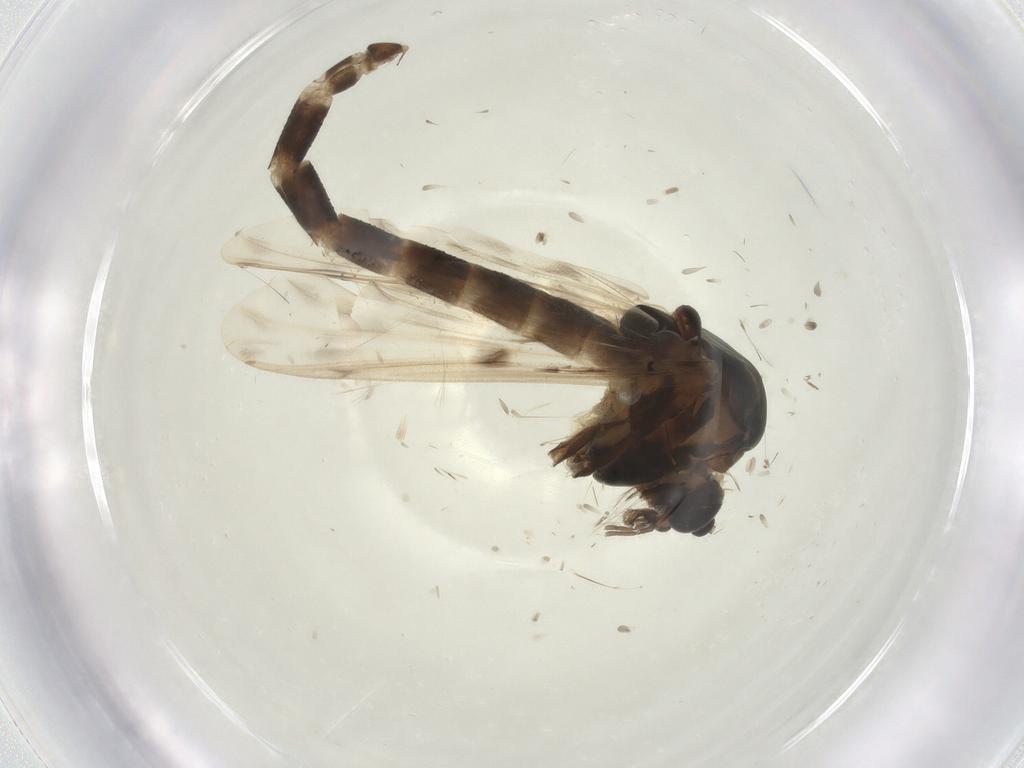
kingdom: Animalia
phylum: Arthropoda
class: Insecta
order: Diptera
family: Chironomidae
